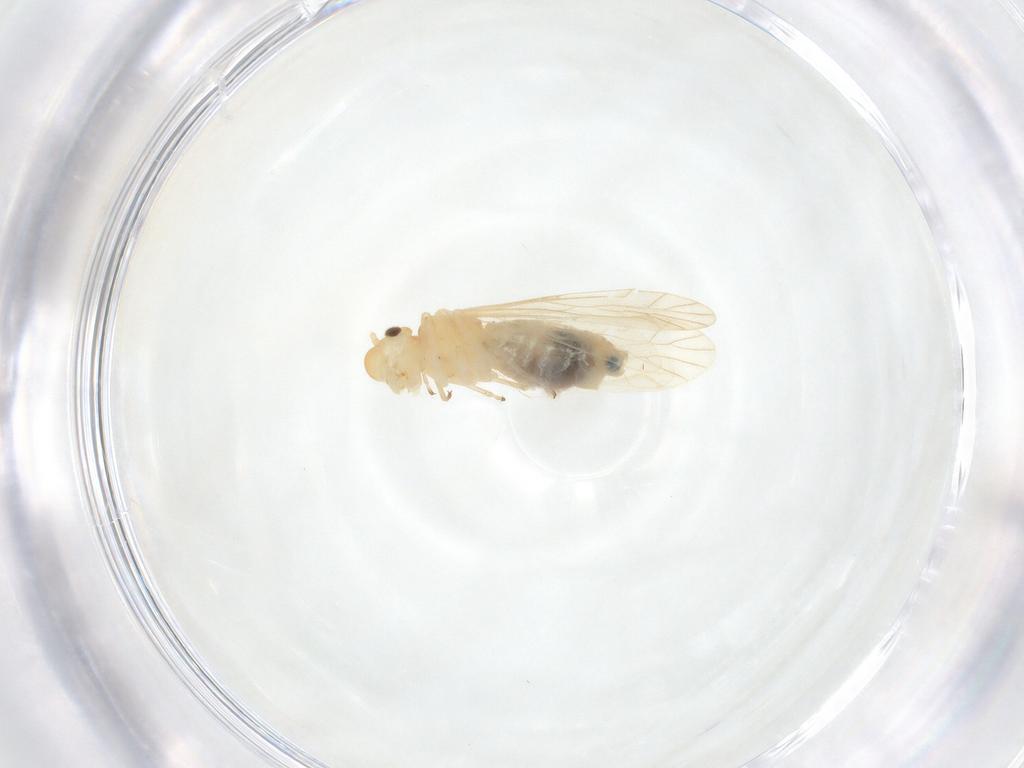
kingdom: Animalia
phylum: Arthropoda
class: Insecta
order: Psocodea
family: Caeciliusidae
